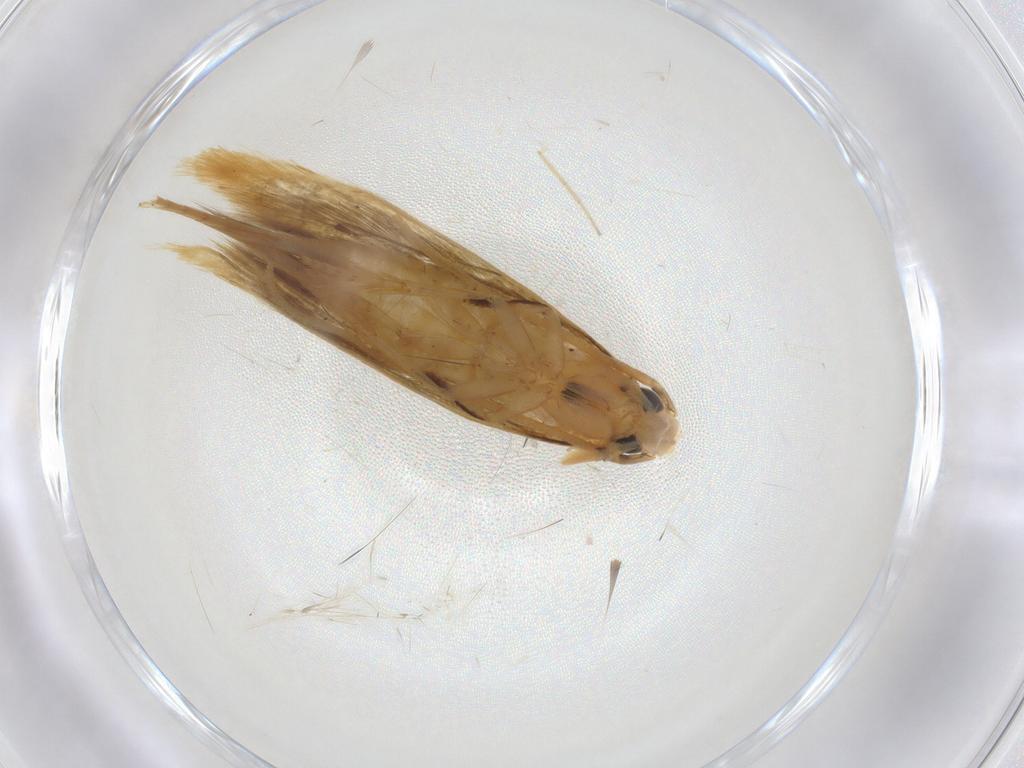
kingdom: Animalia
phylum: Arthropoda
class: Insecta
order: Lepidoptera
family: Tineidae
